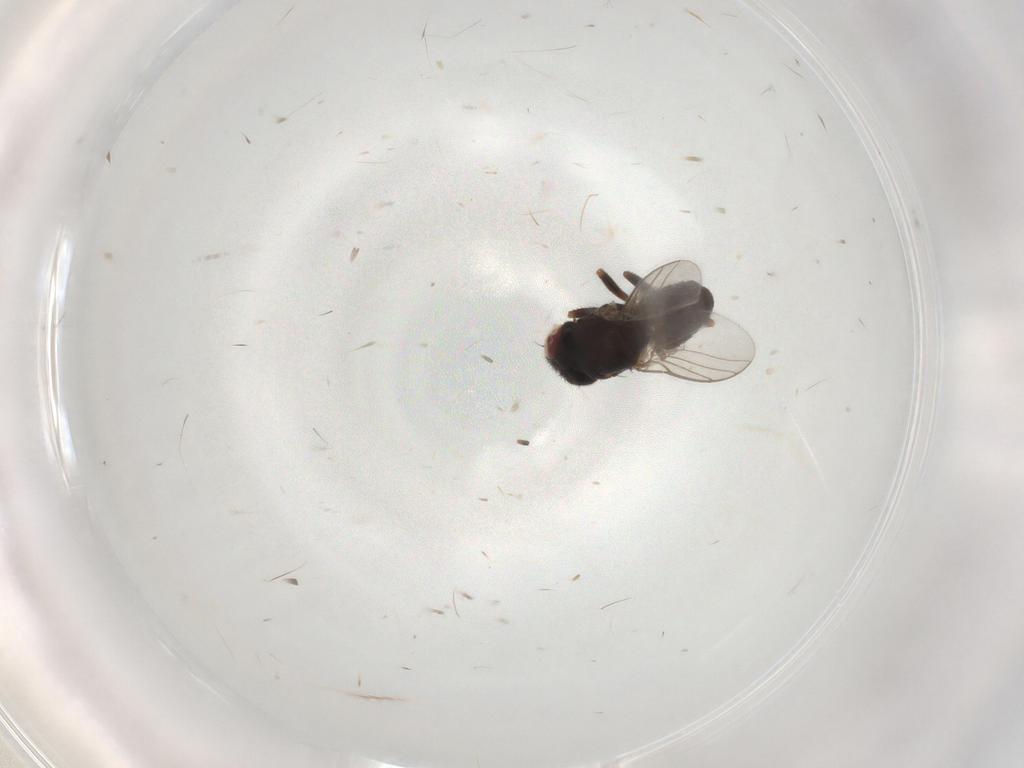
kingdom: Animalia
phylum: Arthropoda
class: Insecta
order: Diptera
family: Chloropidae
